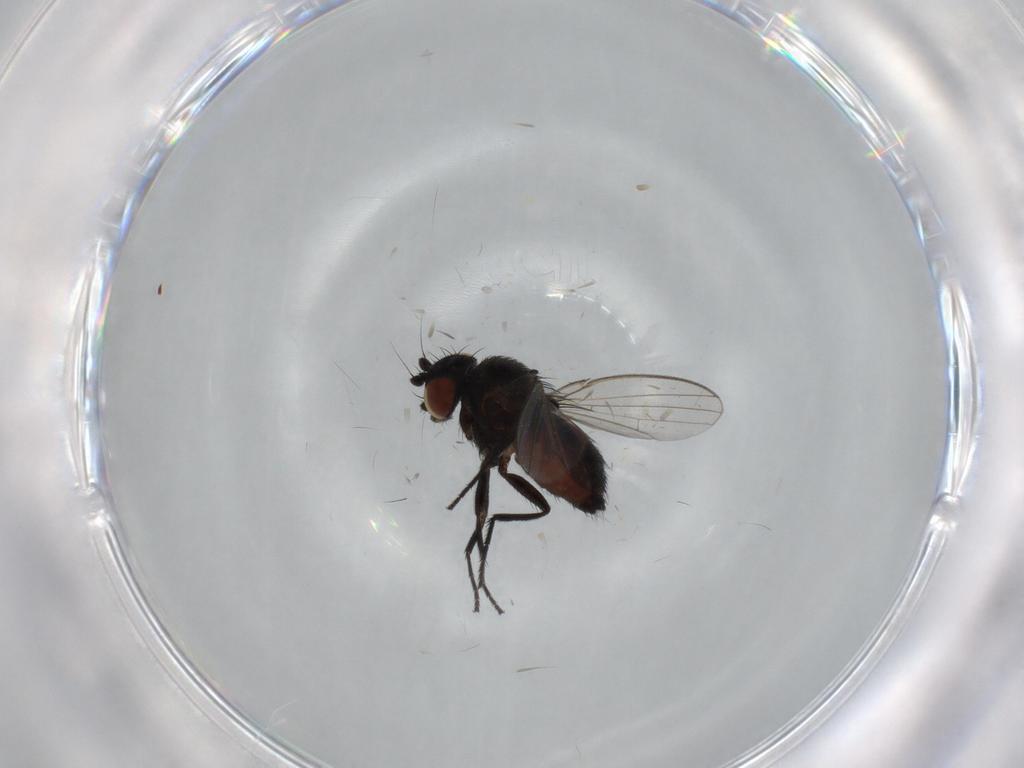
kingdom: Animalia
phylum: Arthropoda
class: Insecta
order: Diptera
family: Milichiidae
